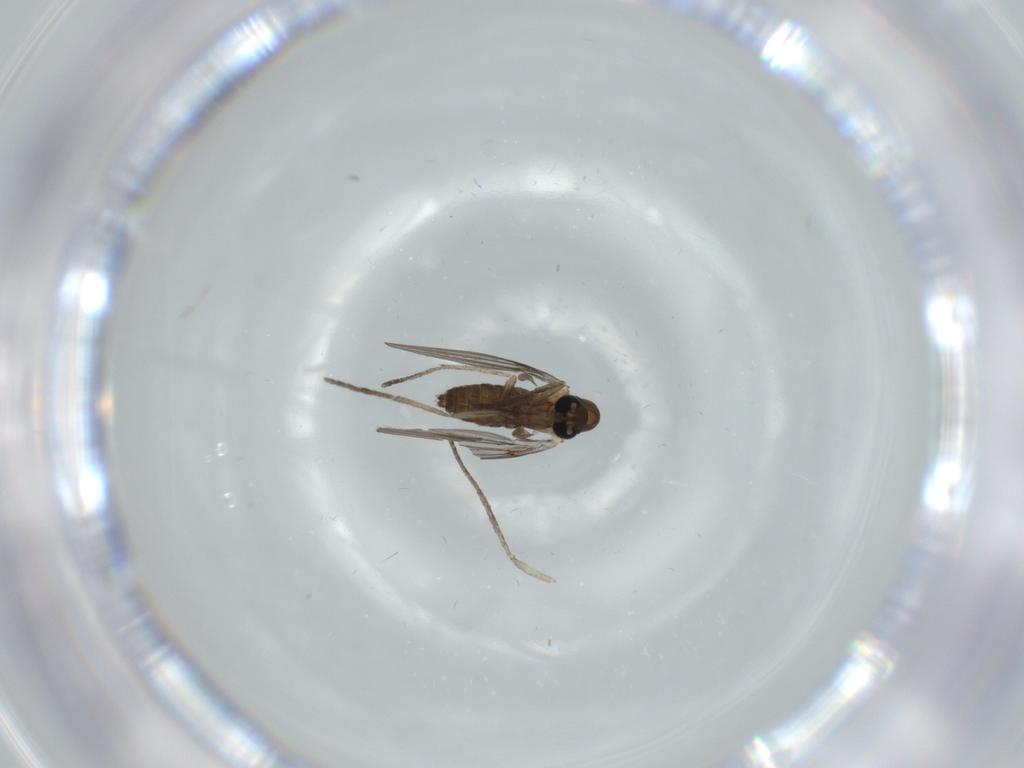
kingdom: Animalia
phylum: Arthropoda
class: Insecta
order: Diptera
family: Psychodidae
